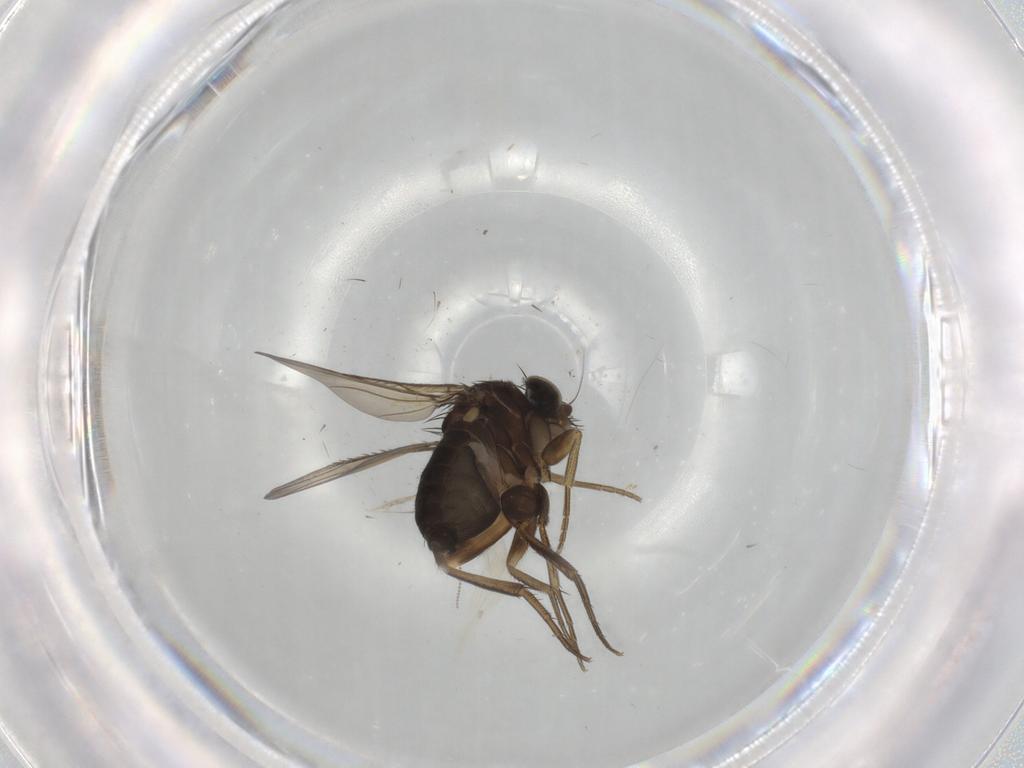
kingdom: Animalia
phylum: Arthropoda
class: Insecta
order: Diptera
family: Cecidomyiidae
